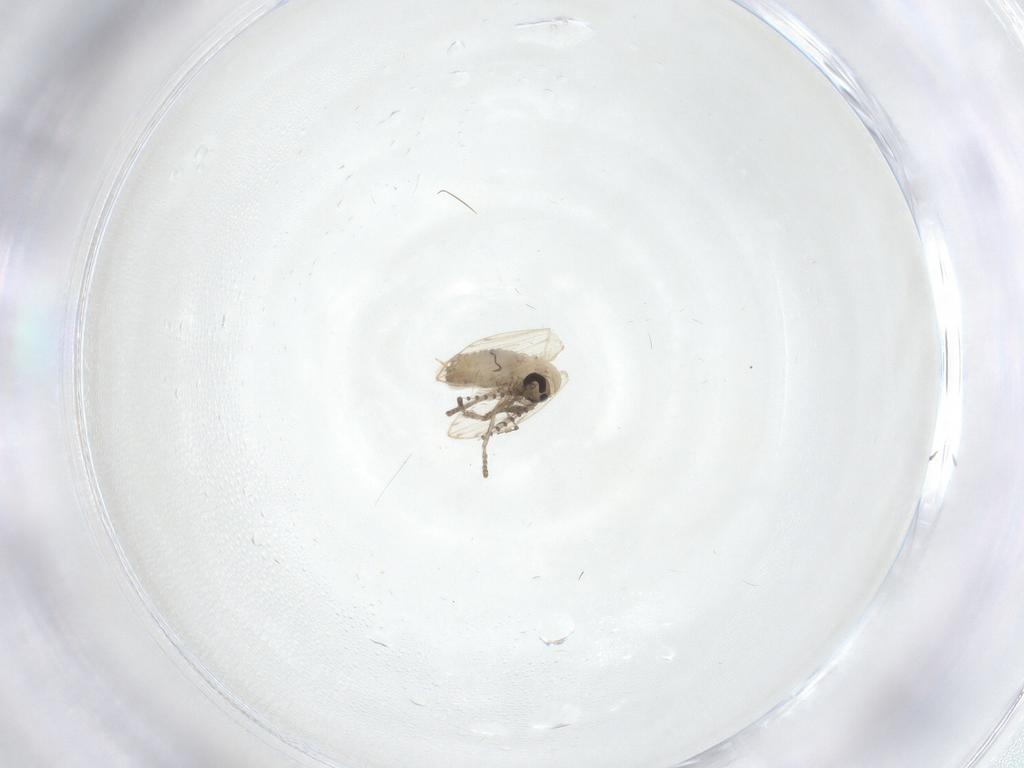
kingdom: Animalia
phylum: Arthropoda
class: Insecta
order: Diptera
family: Psychodidae
